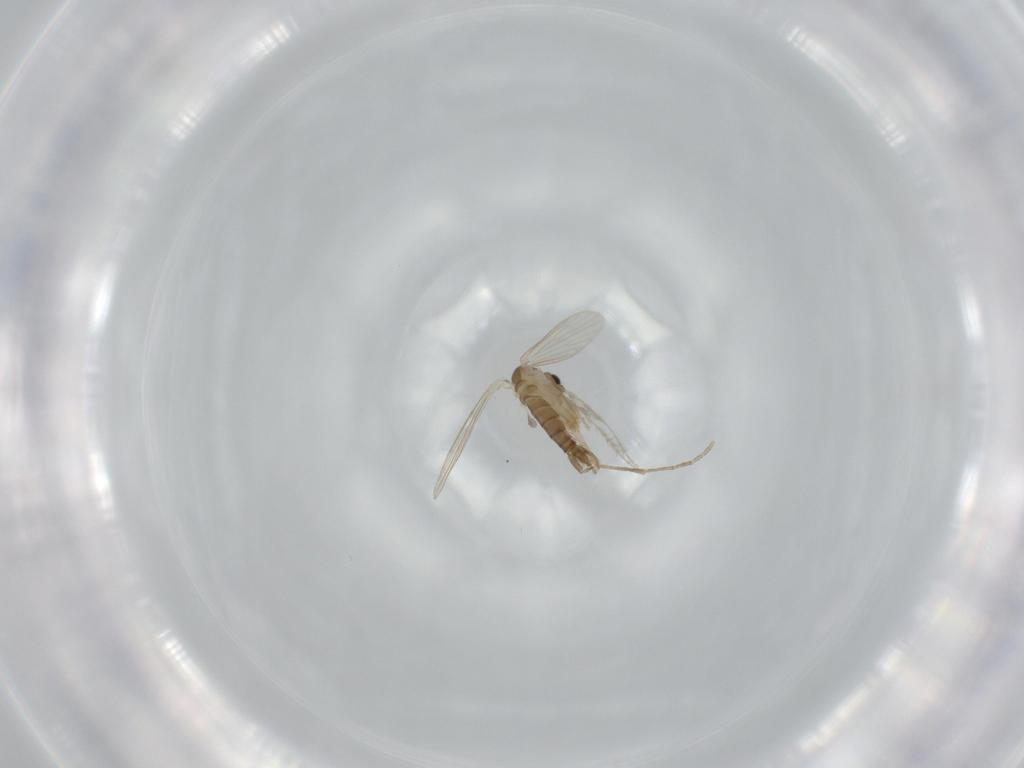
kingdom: Animalia
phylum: Arthropoda
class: Insecta
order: Diptera
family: Psychodidae
